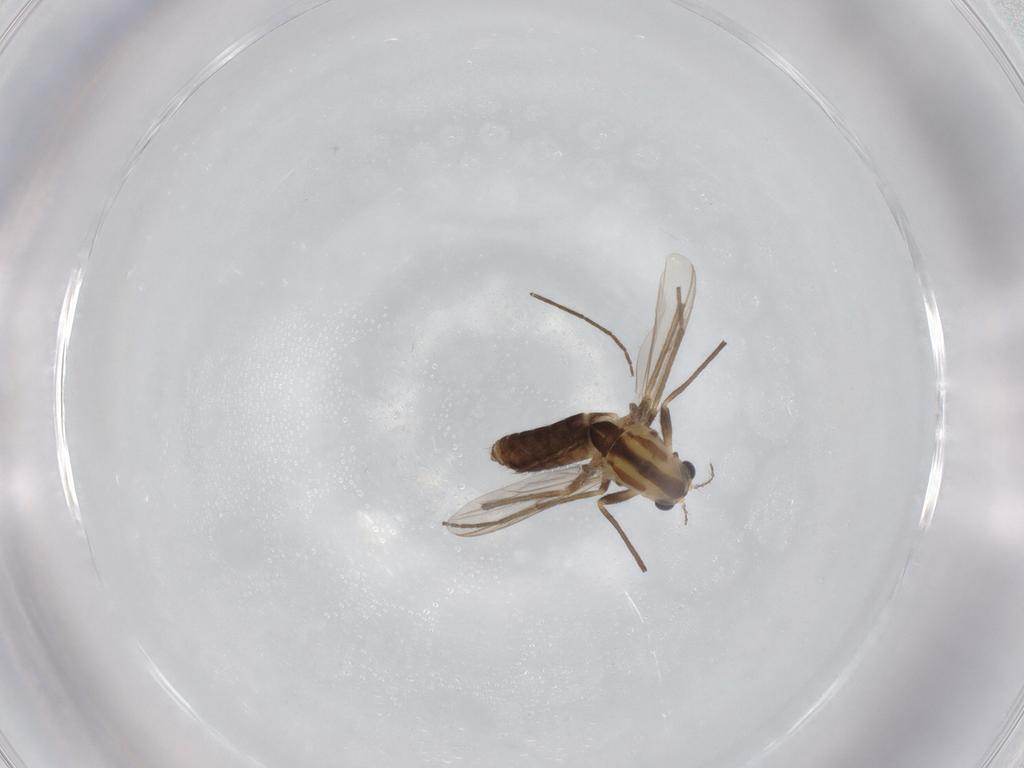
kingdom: Animalia
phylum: Arthropoda
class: Insecta
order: Diptera
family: Chironomidae
